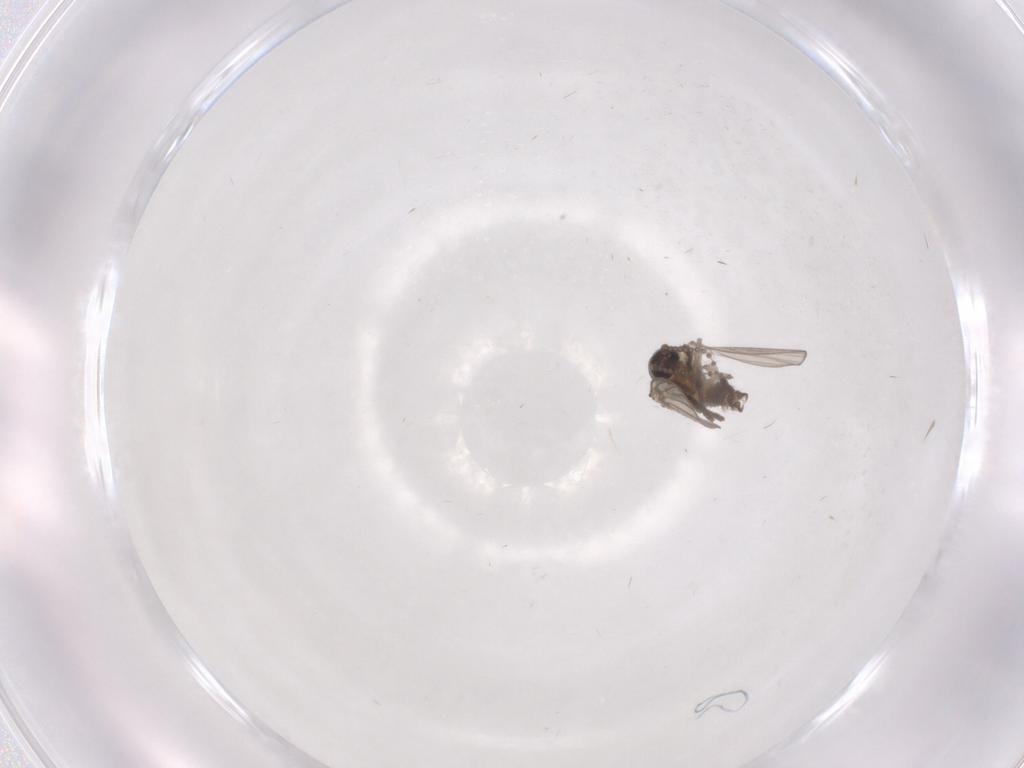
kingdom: Animalia
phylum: Arthropoda
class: Insecta
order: Diptera
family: Psychodidae
